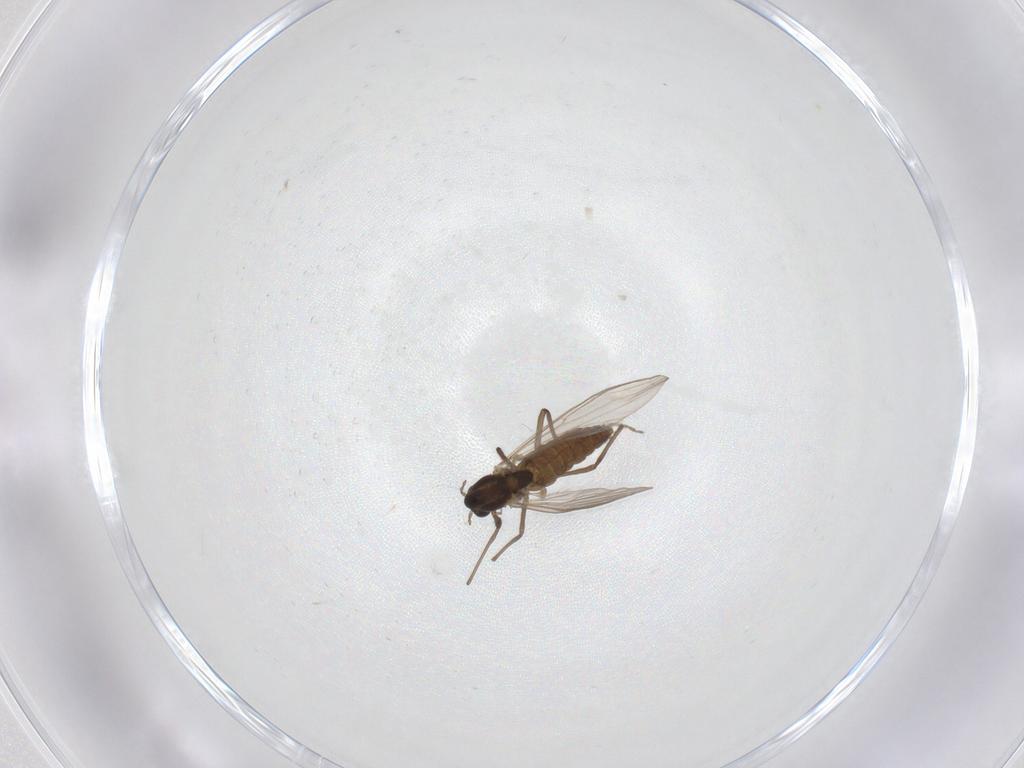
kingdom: Animalia
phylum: Arthropoda
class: Insecta
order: Diptera
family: Chironomidae
